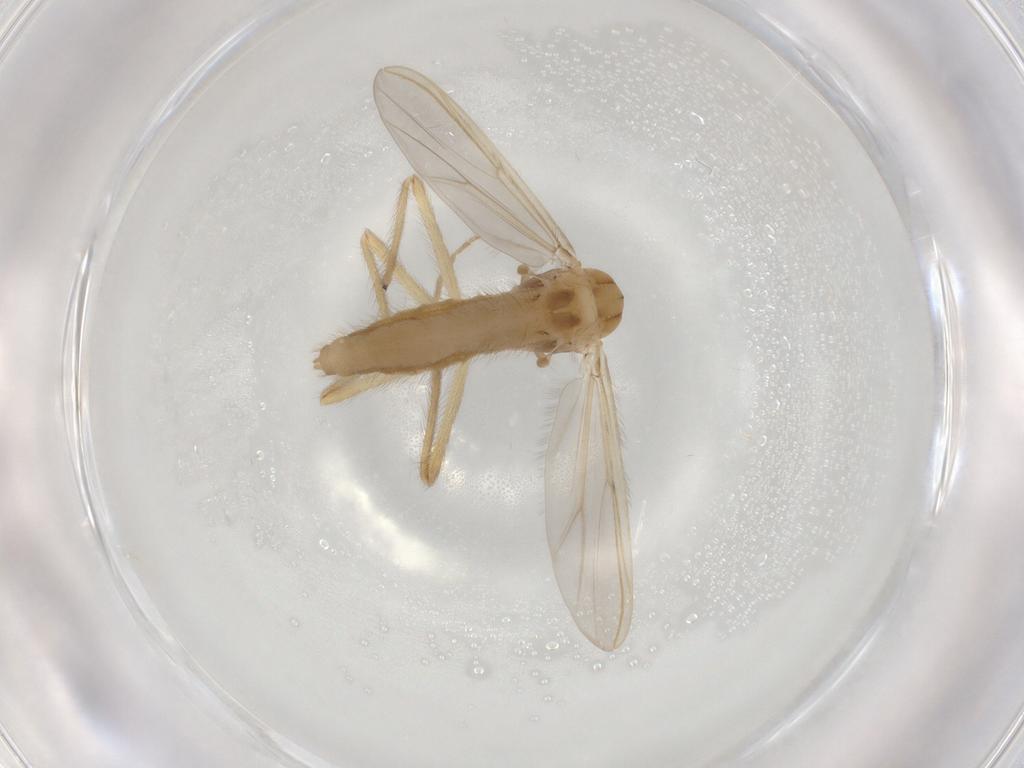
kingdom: Animalia
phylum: Arthropoda
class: Insecta
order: Diptera
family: Chironomidae
